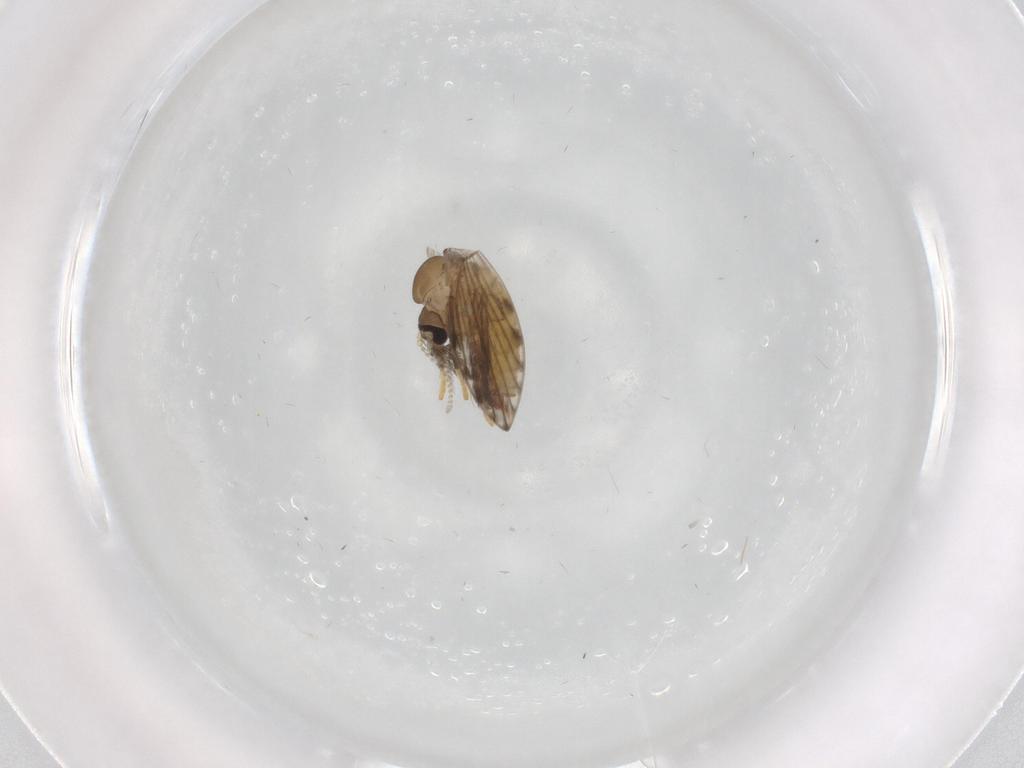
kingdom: Animalia
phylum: Arthropoda
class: Insecta
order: Diptera
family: Psychodidae
